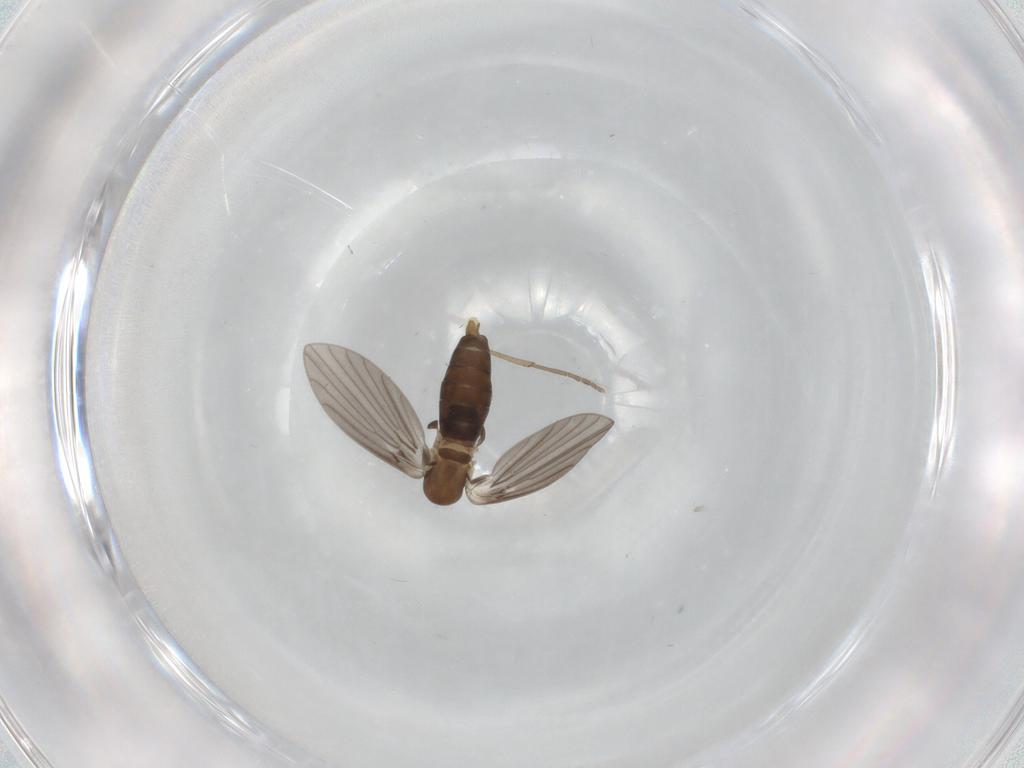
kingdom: Animalia
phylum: Arthropoda
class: Insecta
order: Diptera
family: Psychodidae
